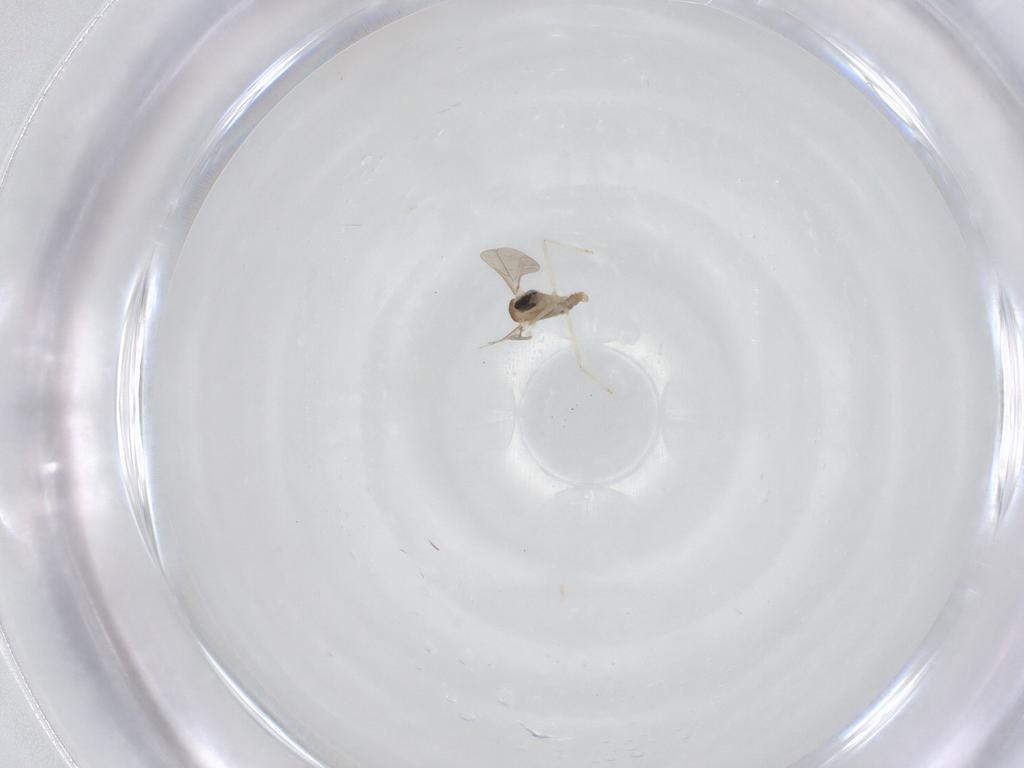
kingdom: Animalia
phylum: Arthropoda
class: Insecta
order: Diptera
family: Cecidomyiidae
